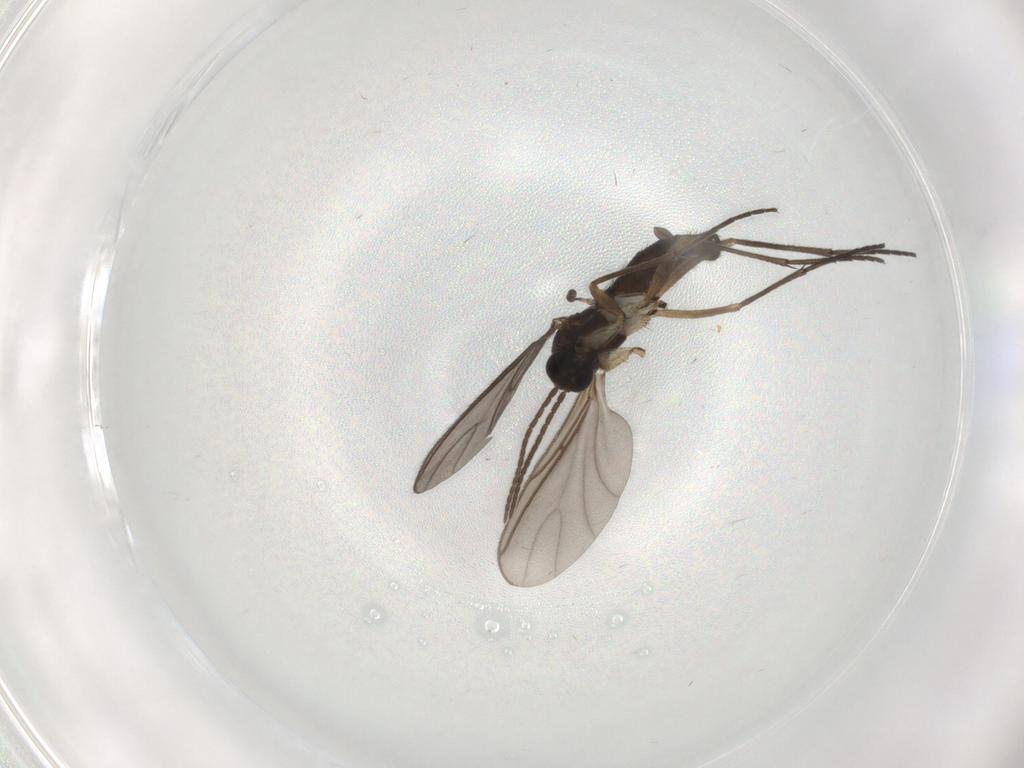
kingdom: Animalia
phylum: Arthropoda
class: Insecta
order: Diptera
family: Sciaridae
